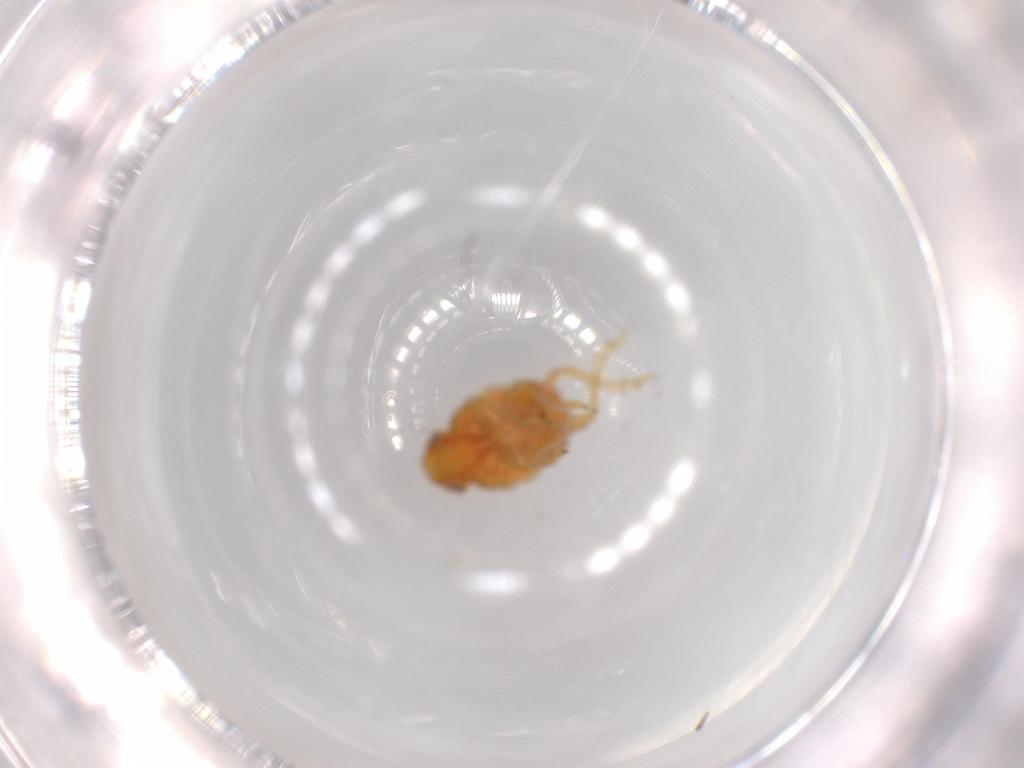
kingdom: Animalia
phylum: Arthropoda
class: Insecta
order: Hemiptera
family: Issidae
